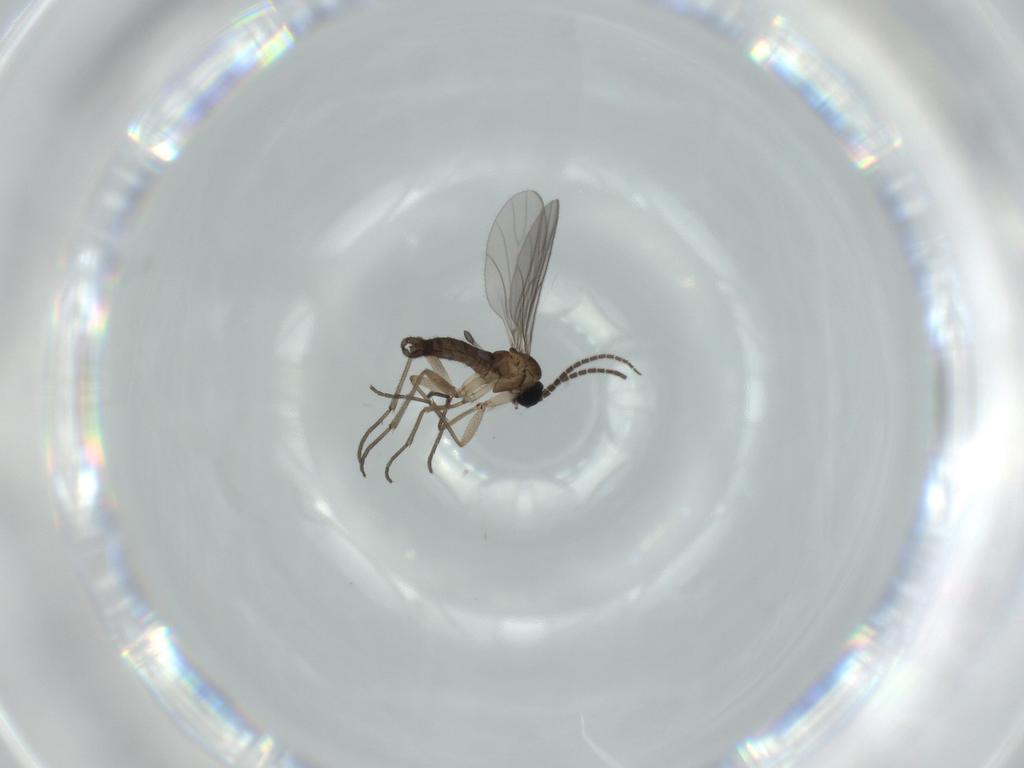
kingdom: Animalia
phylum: Arthropoda
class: Insecta
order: Diptera
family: Sciaridae
